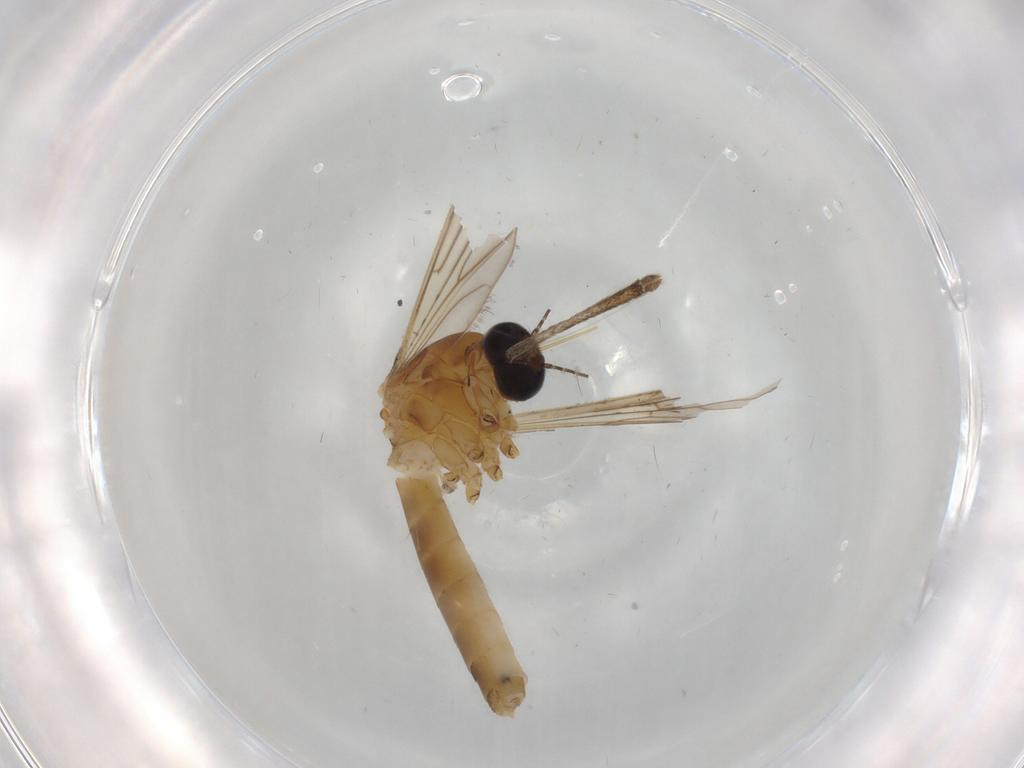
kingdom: Animalia
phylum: Arthropoda
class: Insecta
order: Diptera
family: Culicidae
